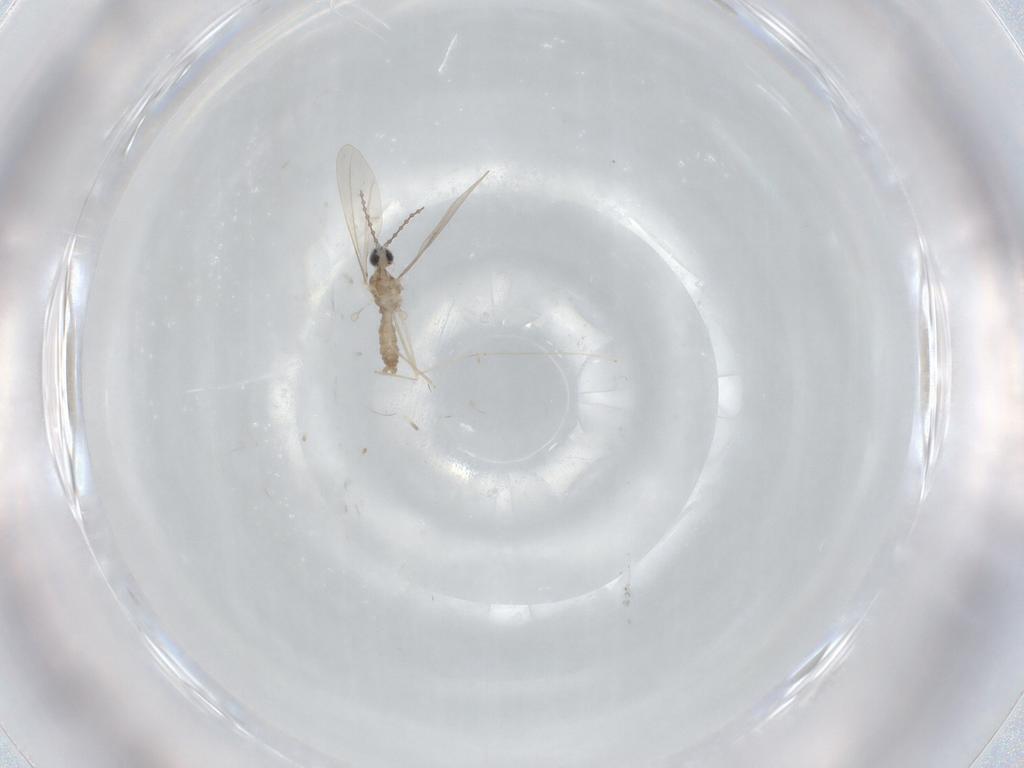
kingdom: Animalia
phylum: Arthropoda
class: Insecta
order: Diptera
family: Cecidomyiidae
